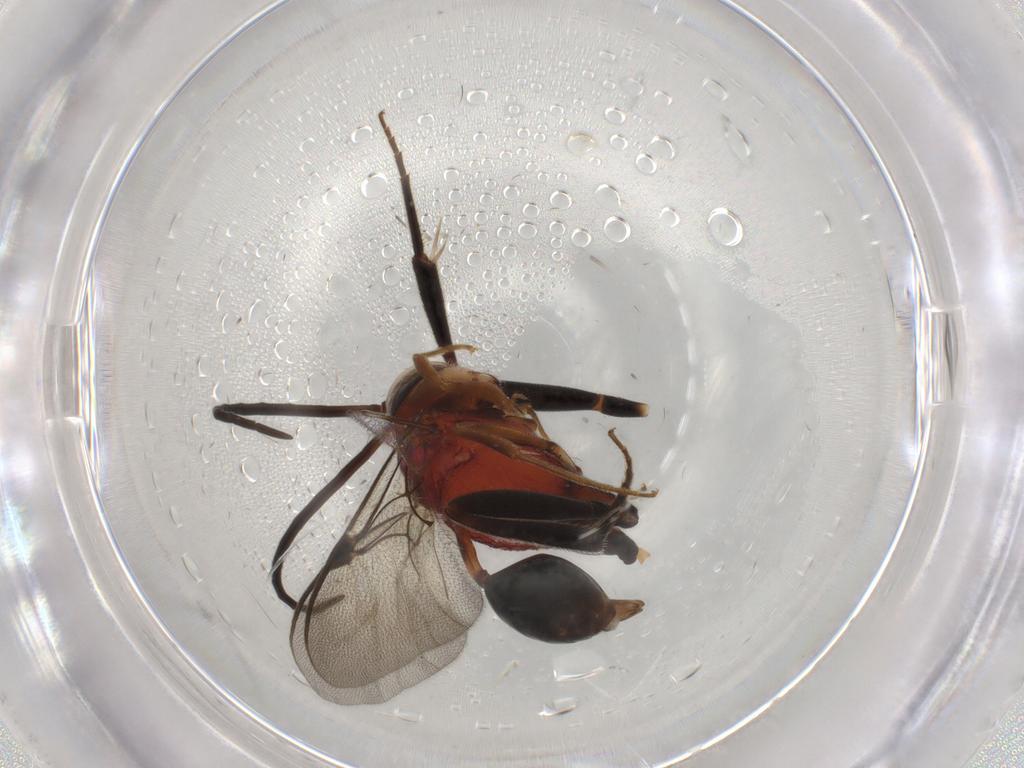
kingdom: Animalia
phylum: Arthropoda
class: Insecta
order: Hymenoptera
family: Evaniidae
